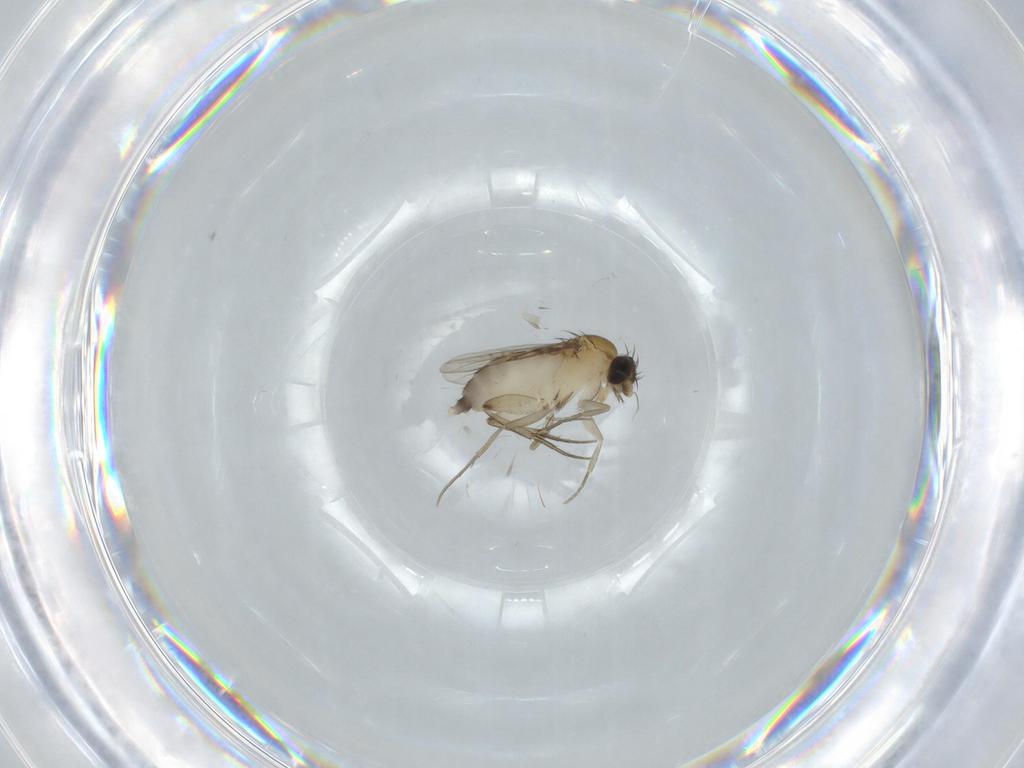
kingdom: Animalia
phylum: Arthropoda
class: Insecta
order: Diptera
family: Phoridae
